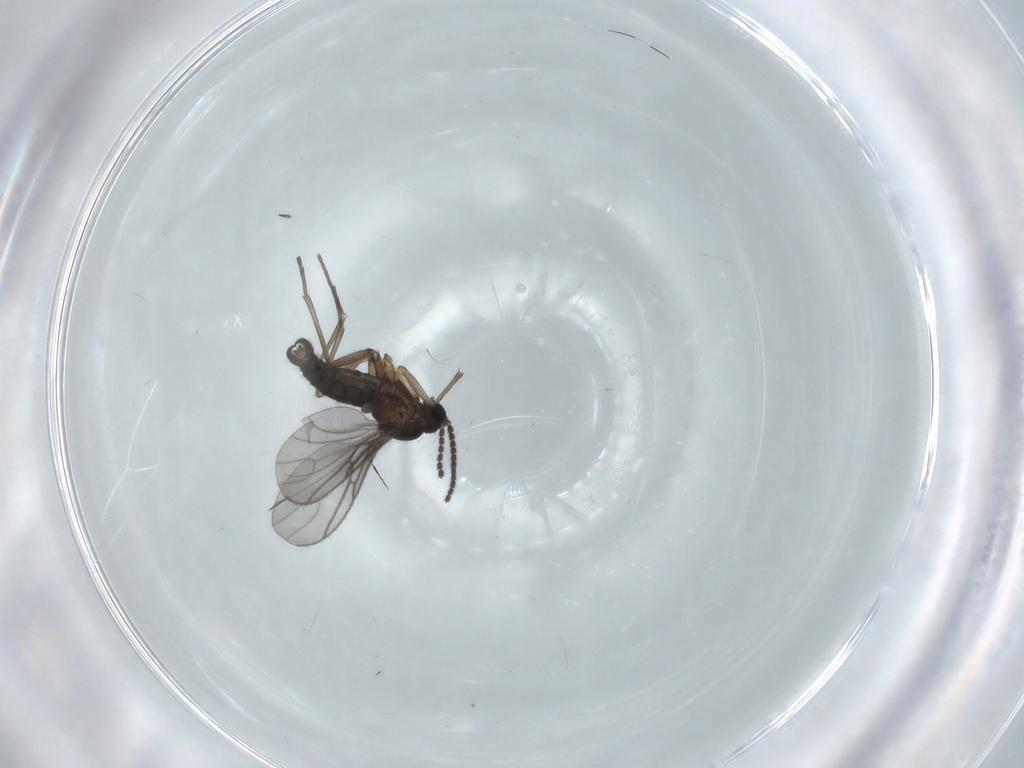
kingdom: Animalia
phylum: Arthropoda
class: Insecta
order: Diptera
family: Sciaridae
